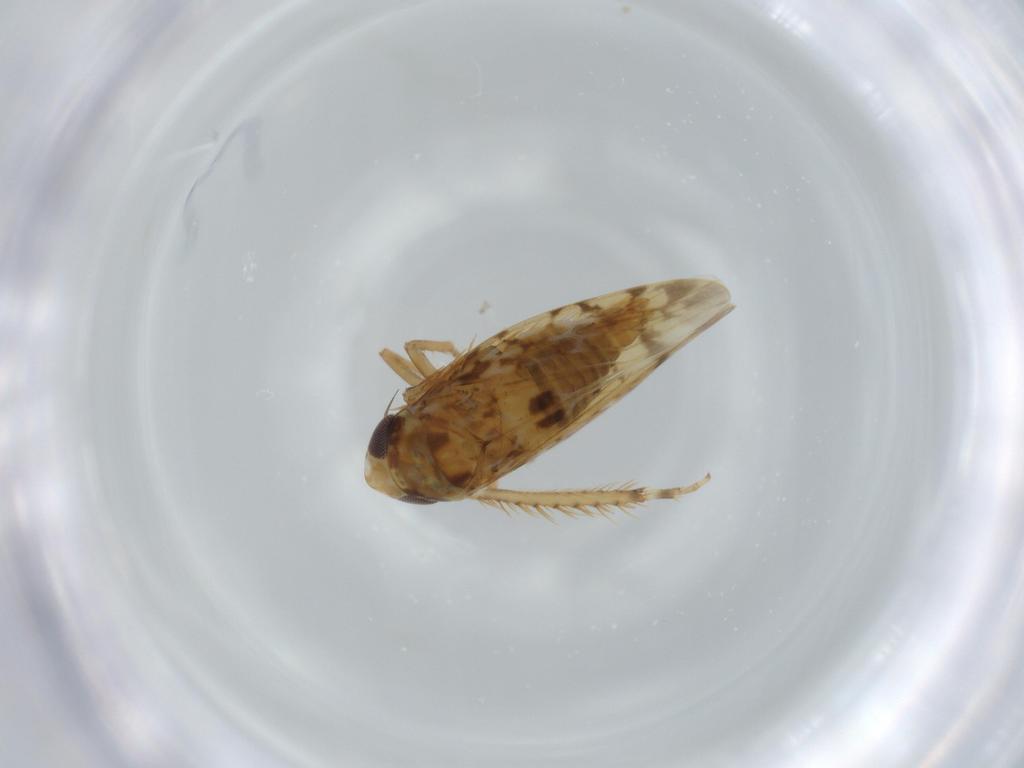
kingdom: Animalia
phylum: Arthropoda
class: Insecta
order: Hemiptera
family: Cicadellidae
